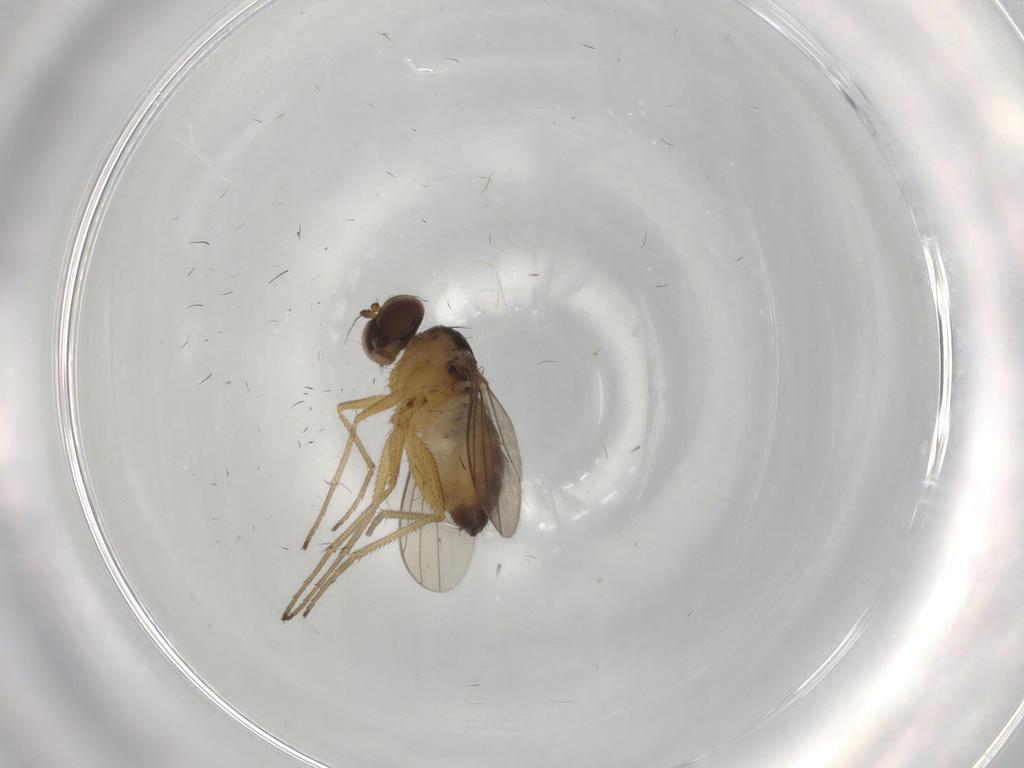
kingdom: Animalia
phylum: Arthropoda
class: Insecta
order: Diptera
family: Dolichopodidae
